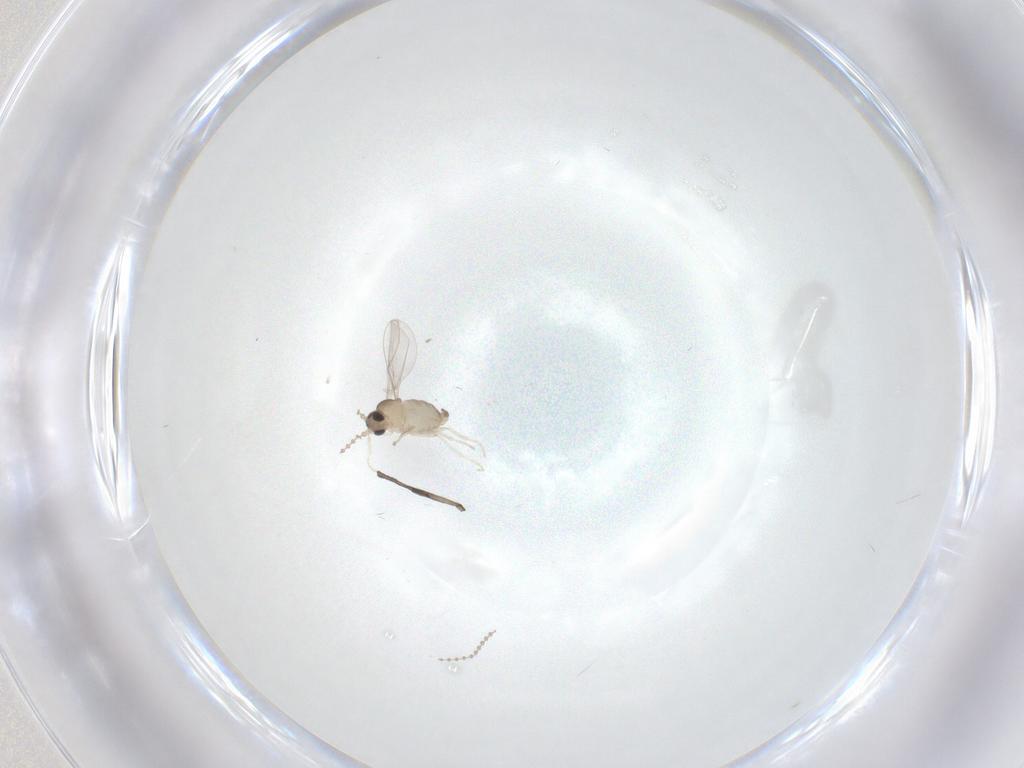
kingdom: Animalia
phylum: Arthropoda
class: Insecta
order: Diptera
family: Cecidomyiidae
